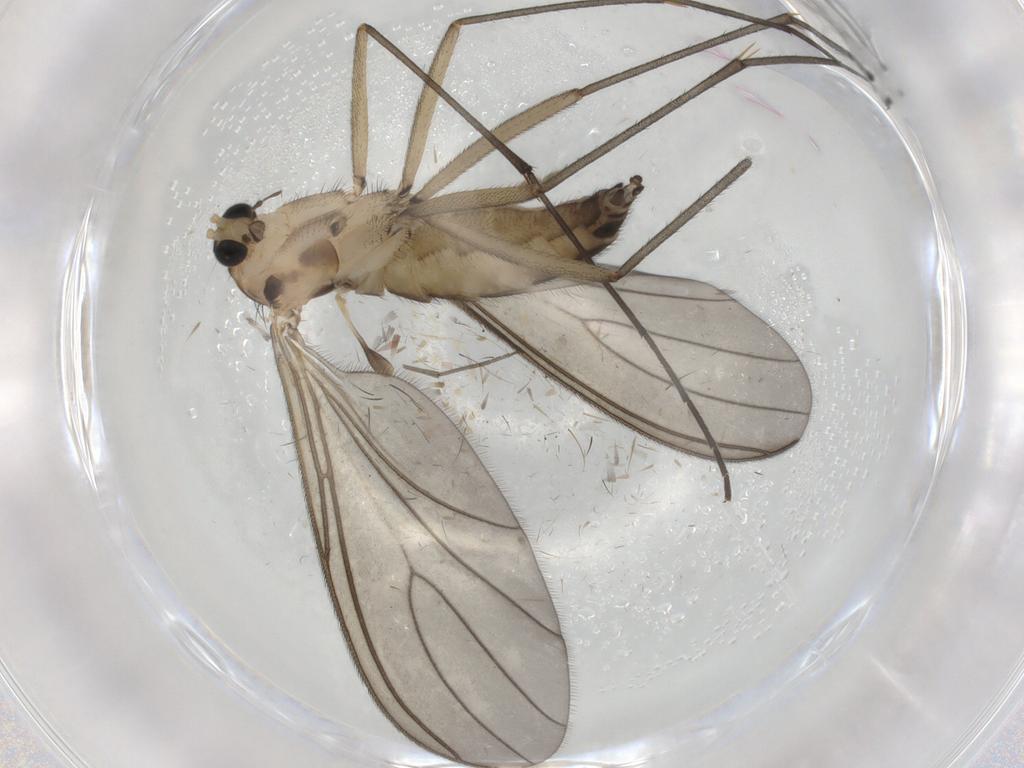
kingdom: Animalia
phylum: Arthropoda
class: Insecta
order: Diptera
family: Sciaridae
